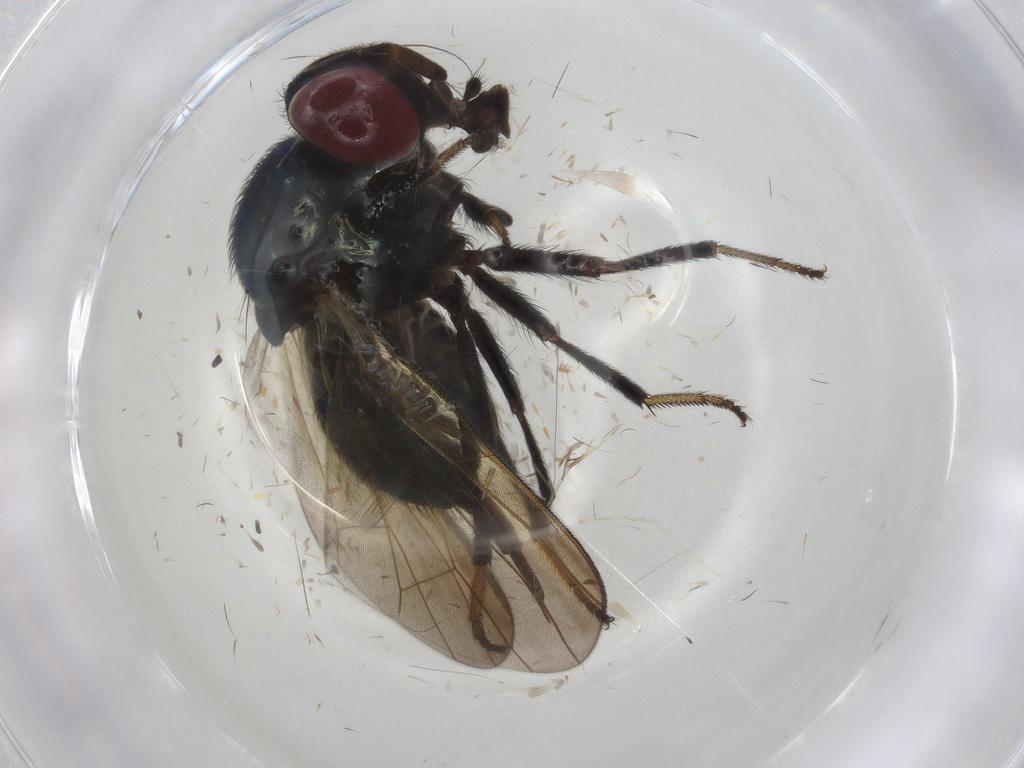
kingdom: Animalia
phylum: Arthropoda
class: Insecta
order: Diptera
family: Lonchaeidae
